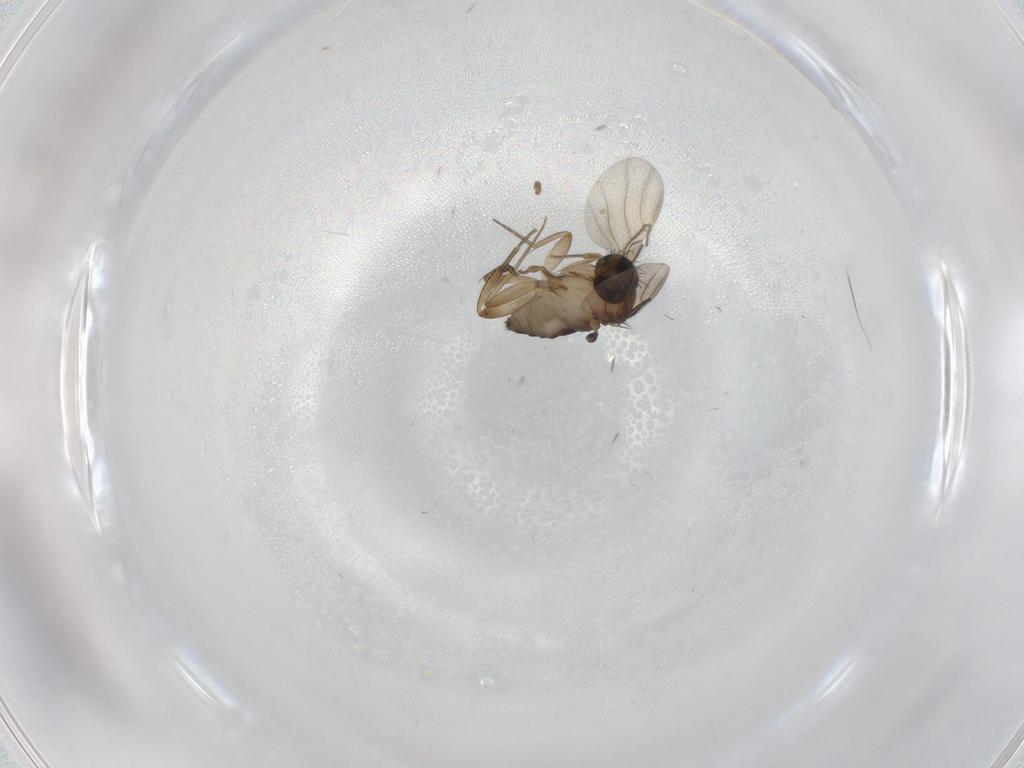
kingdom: Animalia
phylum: Arthropoda
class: Insecta
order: Diptera
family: Phoridae
